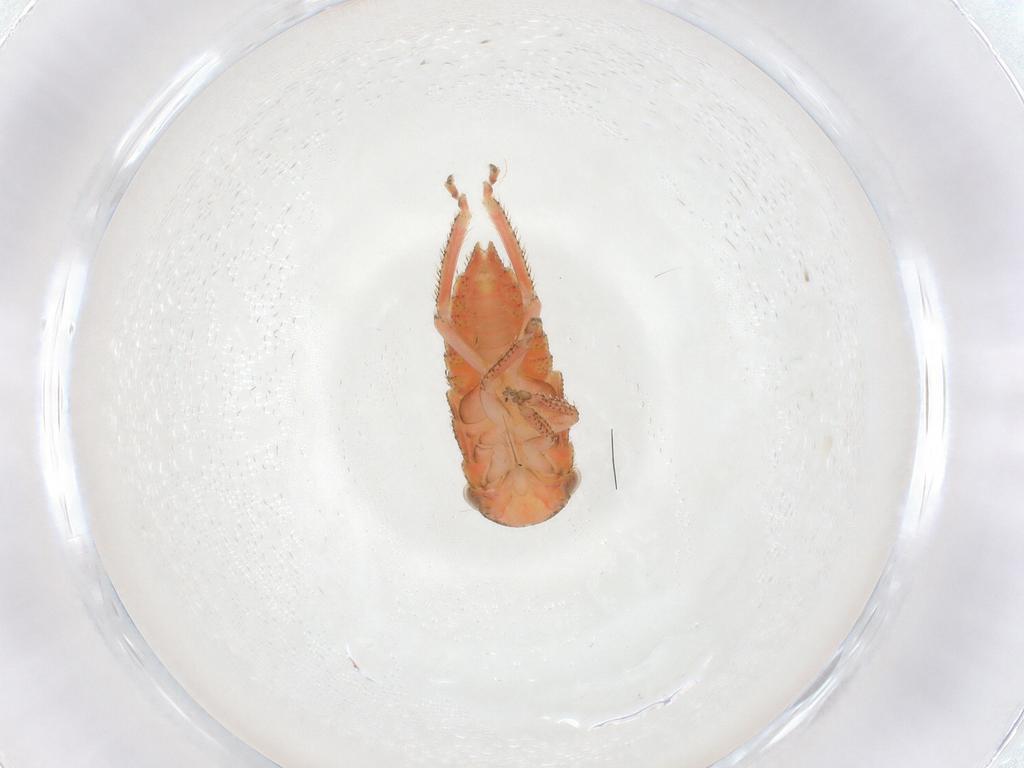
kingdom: Animalia
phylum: Arthropoda
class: Insecta
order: Hemiptera
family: Cicadellidae
